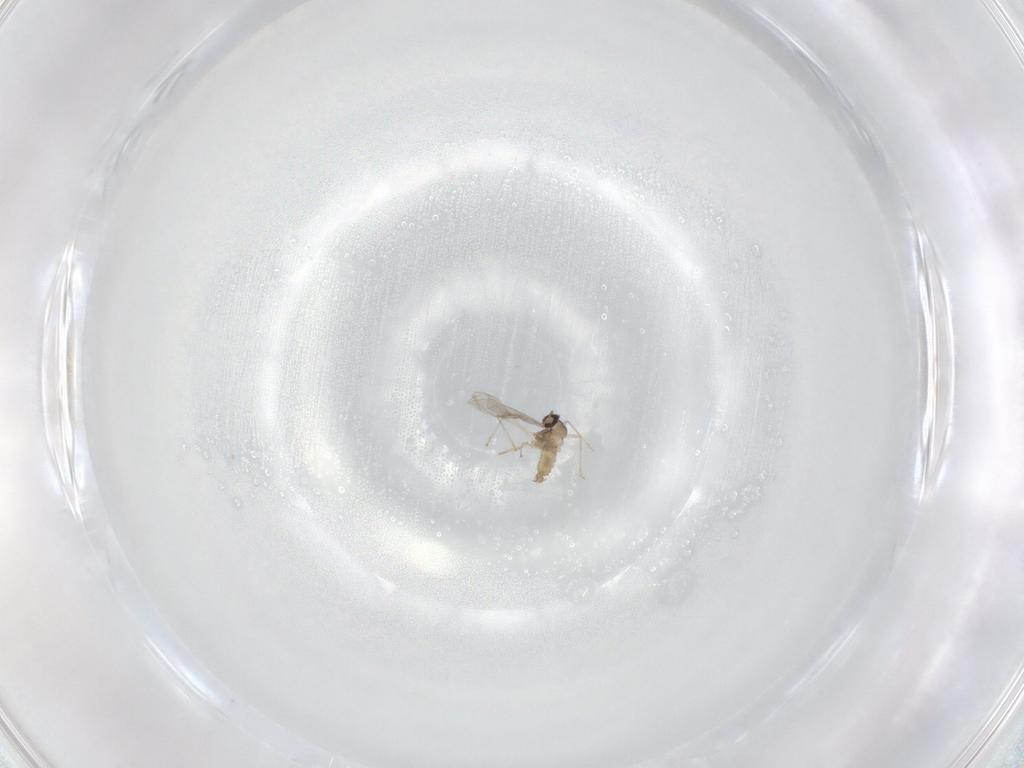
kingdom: Animalia
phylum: Arthropoda
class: Insecta
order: Diptera
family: Cecidomyiidae
